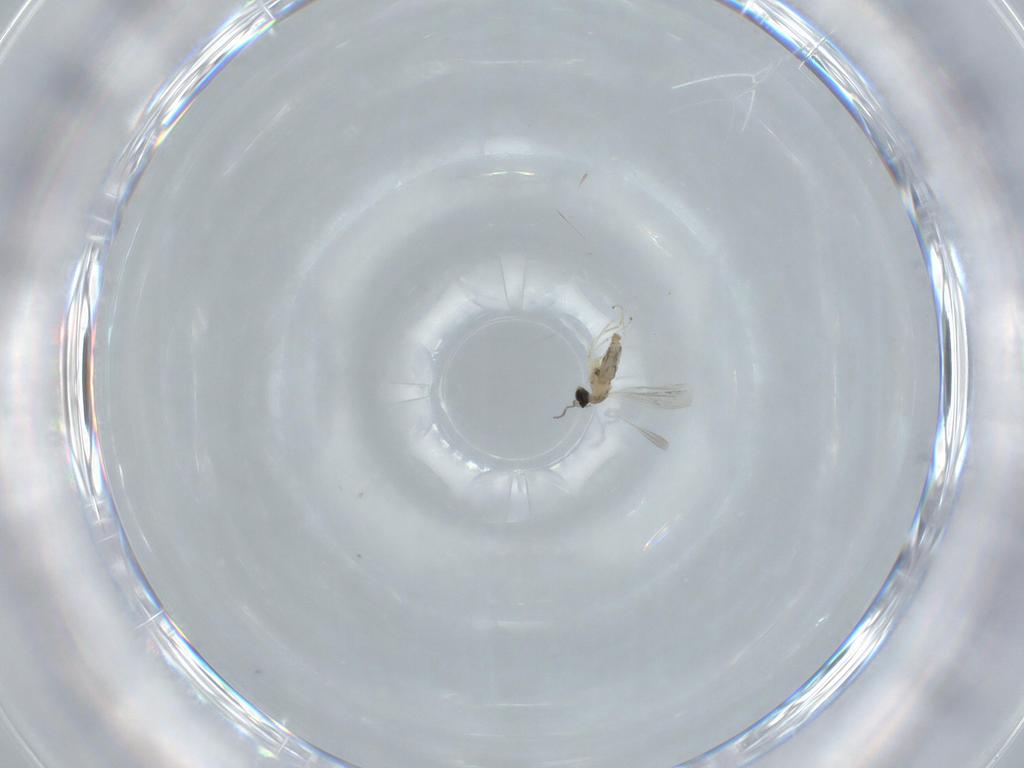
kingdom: Animalia
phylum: Arthropoda
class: Insecta
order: Diptera
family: Cecidomyiidae
